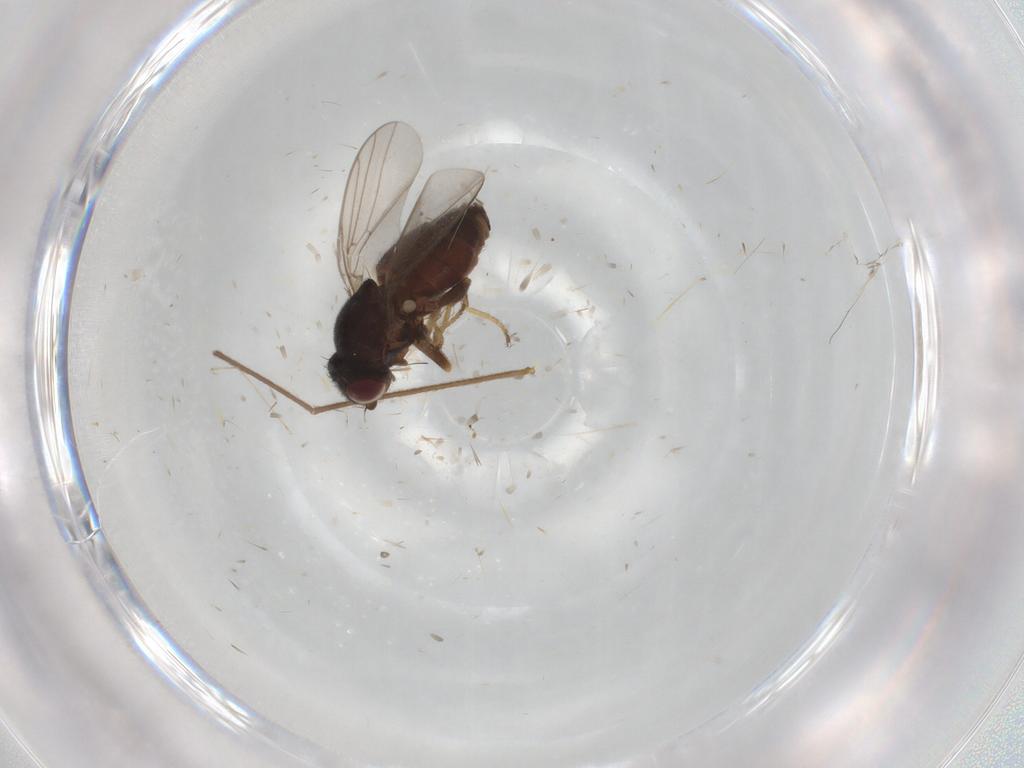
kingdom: Animalia
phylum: Arthropoda
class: Insecta
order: Diptera
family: Chloropidae
